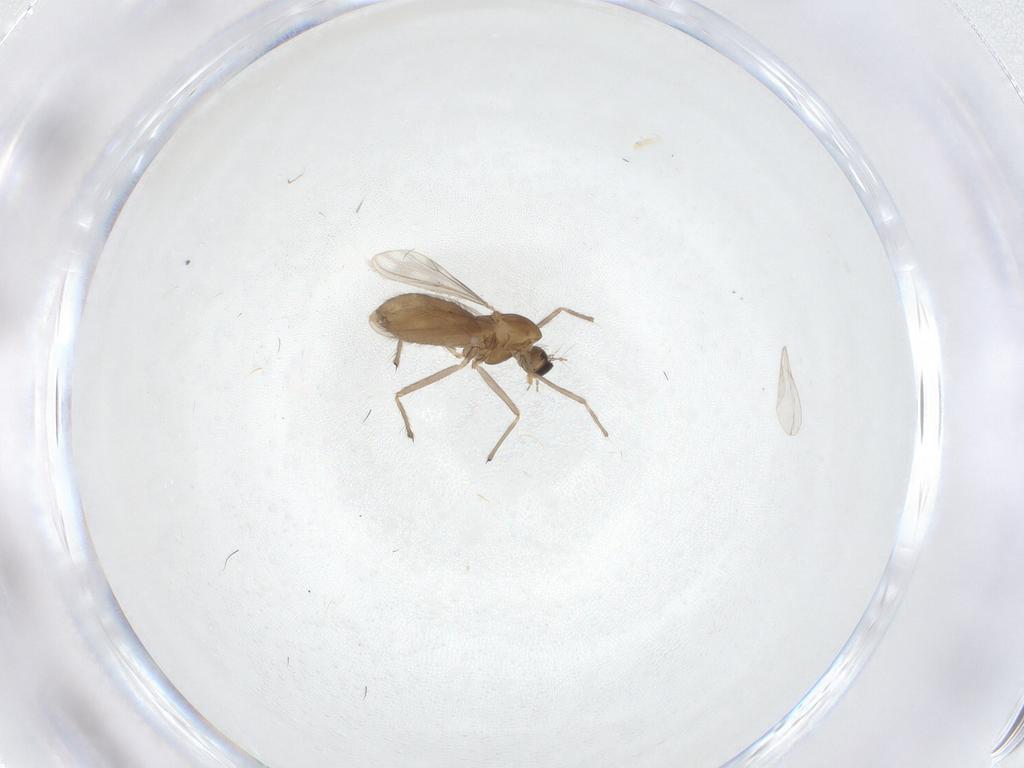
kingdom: Animalia
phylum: Arthropoda
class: Insecta
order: Diptera
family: Chironomidae
